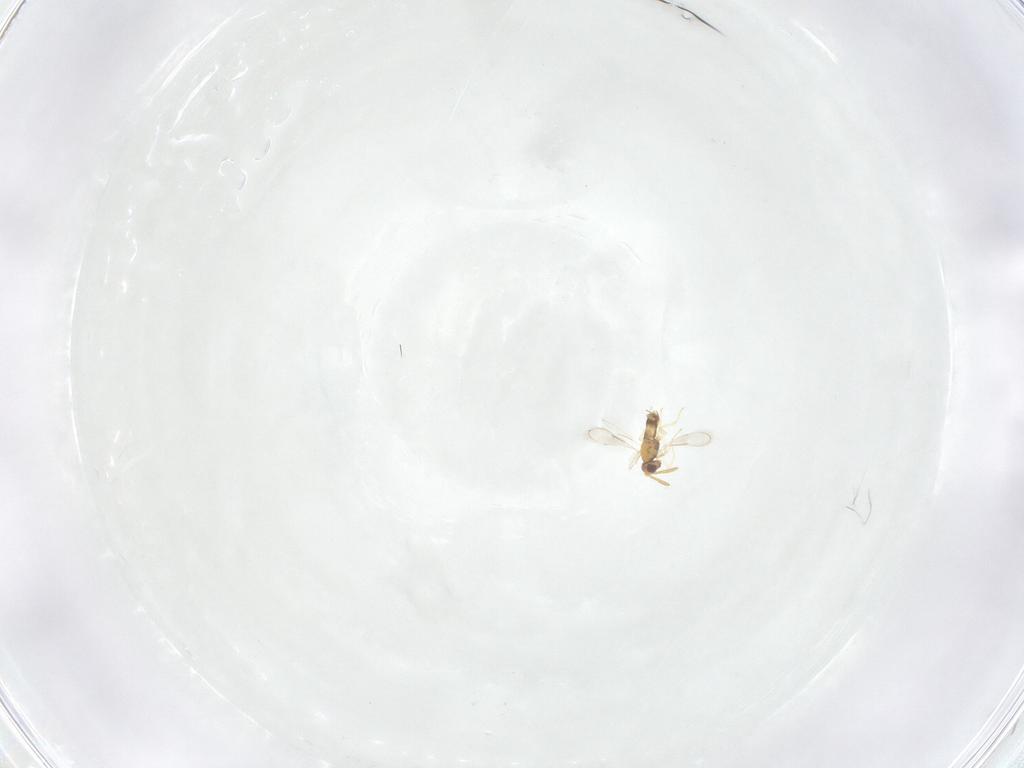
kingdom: Animalia
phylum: Arthropoda
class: Insecta
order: Hymenoptera
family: Aphelinidae
